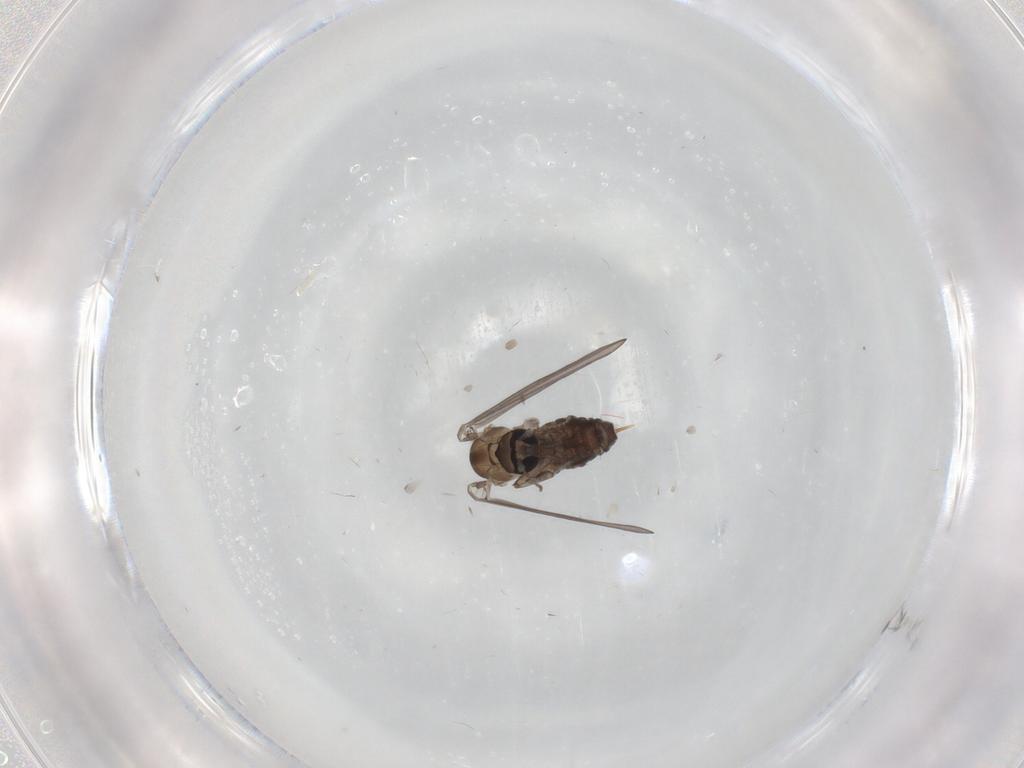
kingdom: Animalia
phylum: Arthropoda
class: Insecta
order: Diptera
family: Psychodidae
